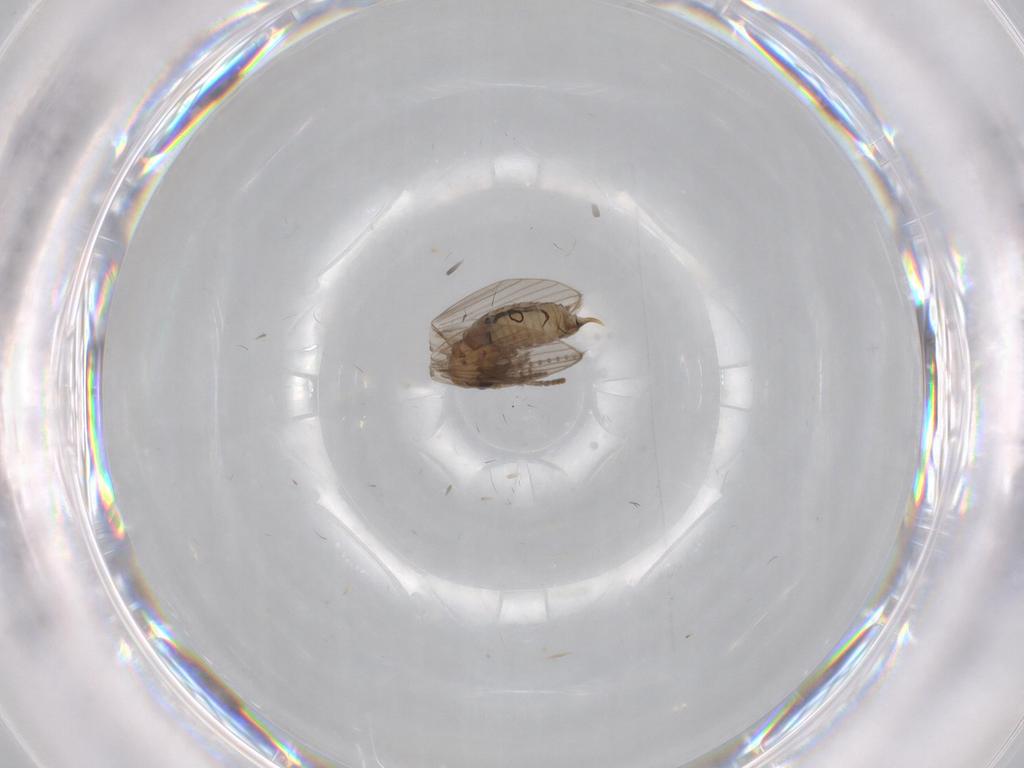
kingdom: Animalia
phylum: Arthropoda
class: Insecta
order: Diptera
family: Psychodidae
